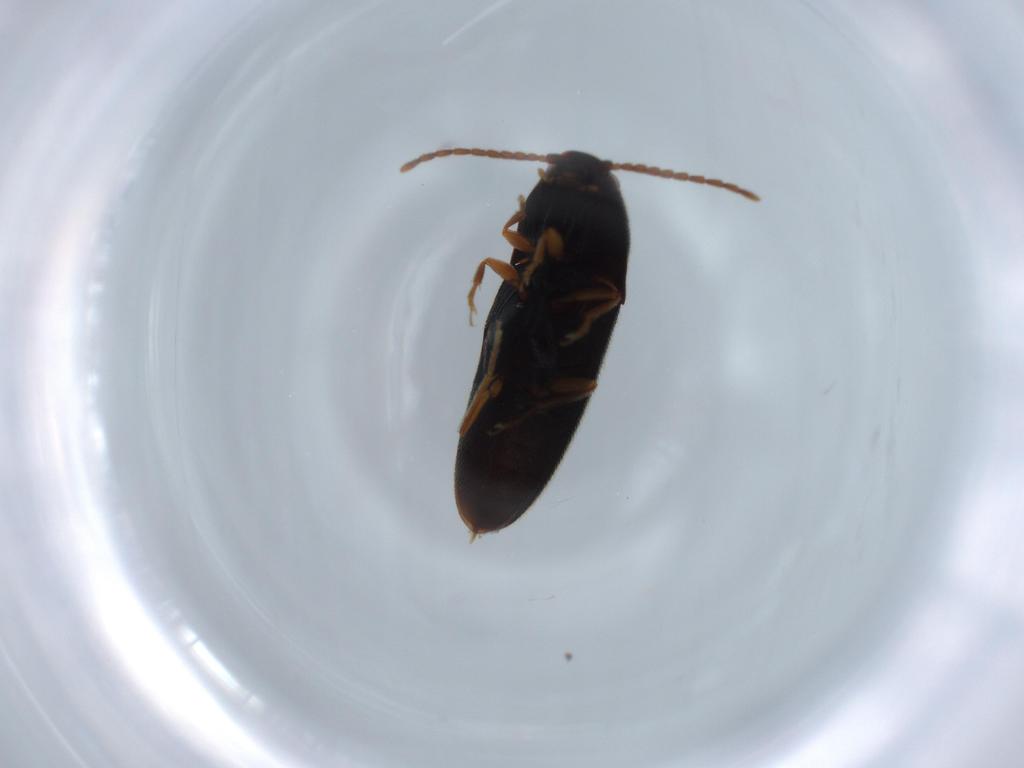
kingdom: Animalia
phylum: Arthropoda
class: Insecta
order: Coleoptera
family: Elateridae
